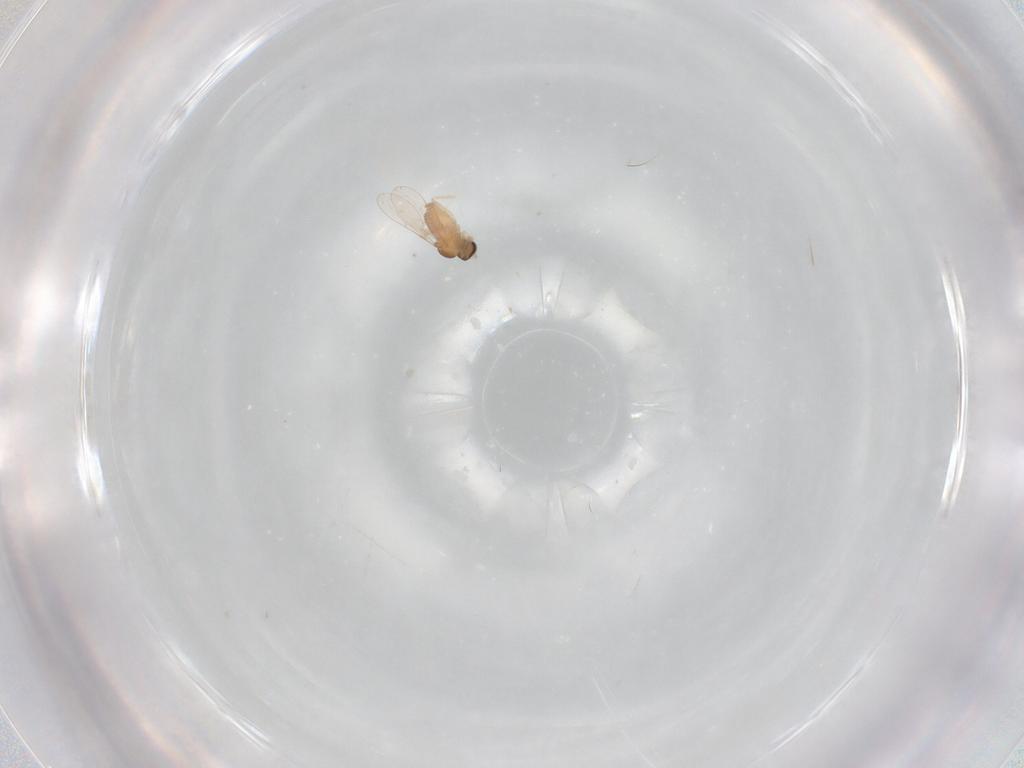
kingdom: Animalia
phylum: Arthropoda
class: Insecta
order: Diptera
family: Cecidomyiidae
